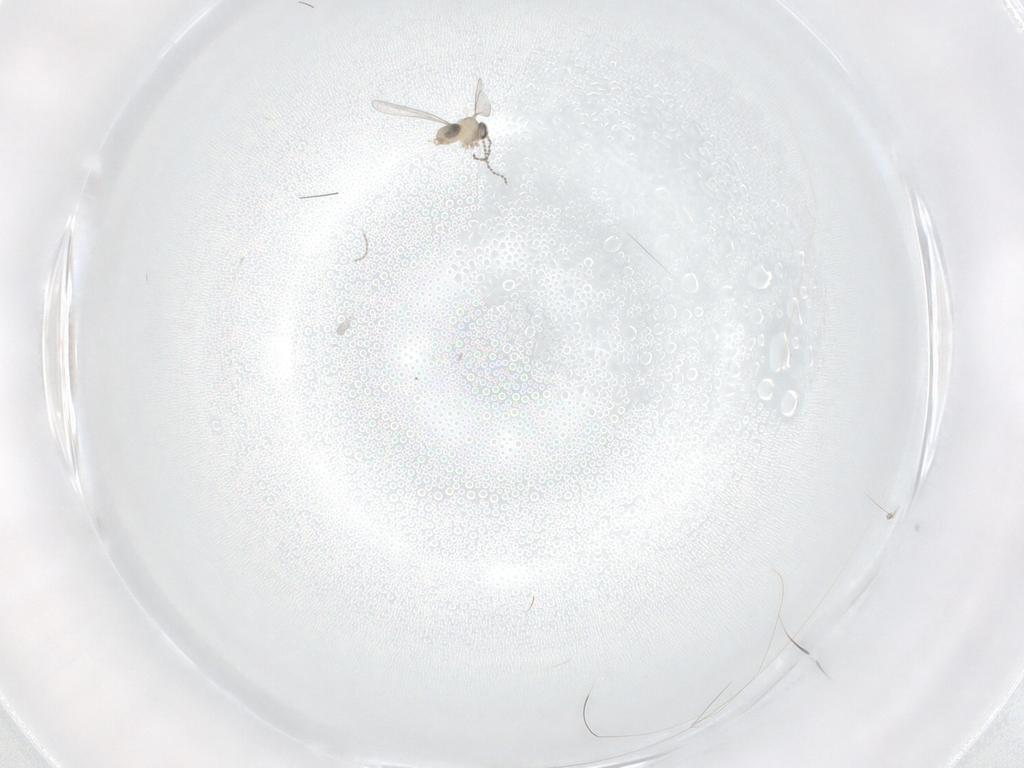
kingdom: Animalia
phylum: Arthropoda
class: Insecta
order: Diptera
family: Cecidomyiidae
